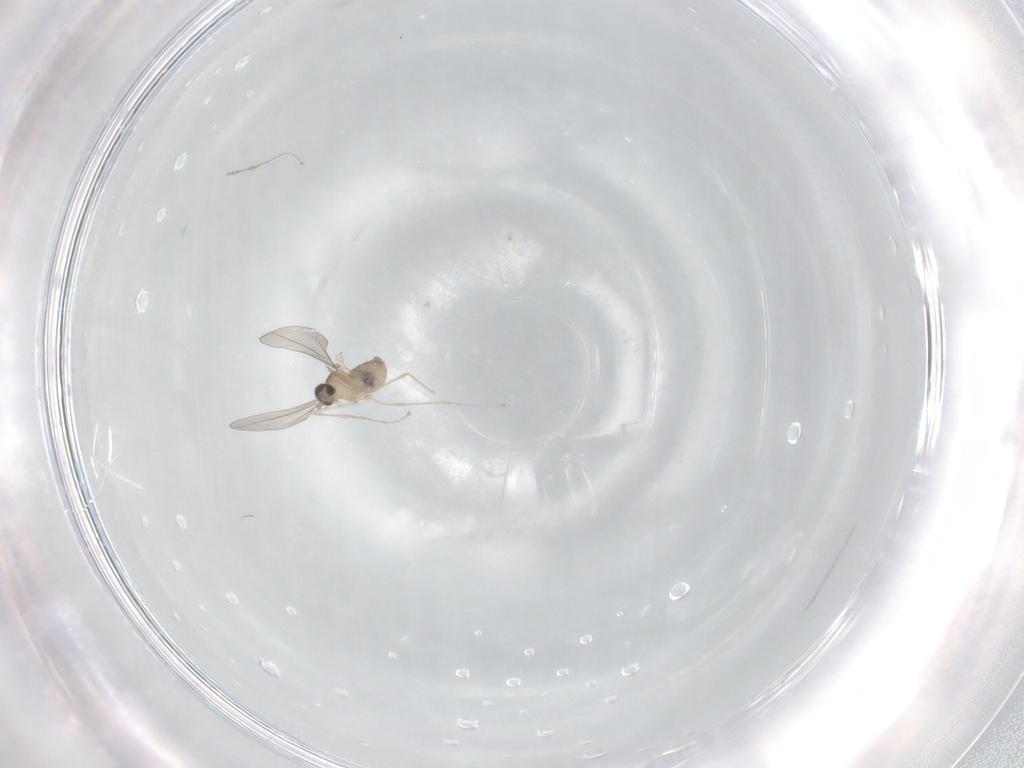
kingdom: Animalia
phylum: Arthropoda
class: Insecta
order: Diptera
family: Cecidomyiidae
